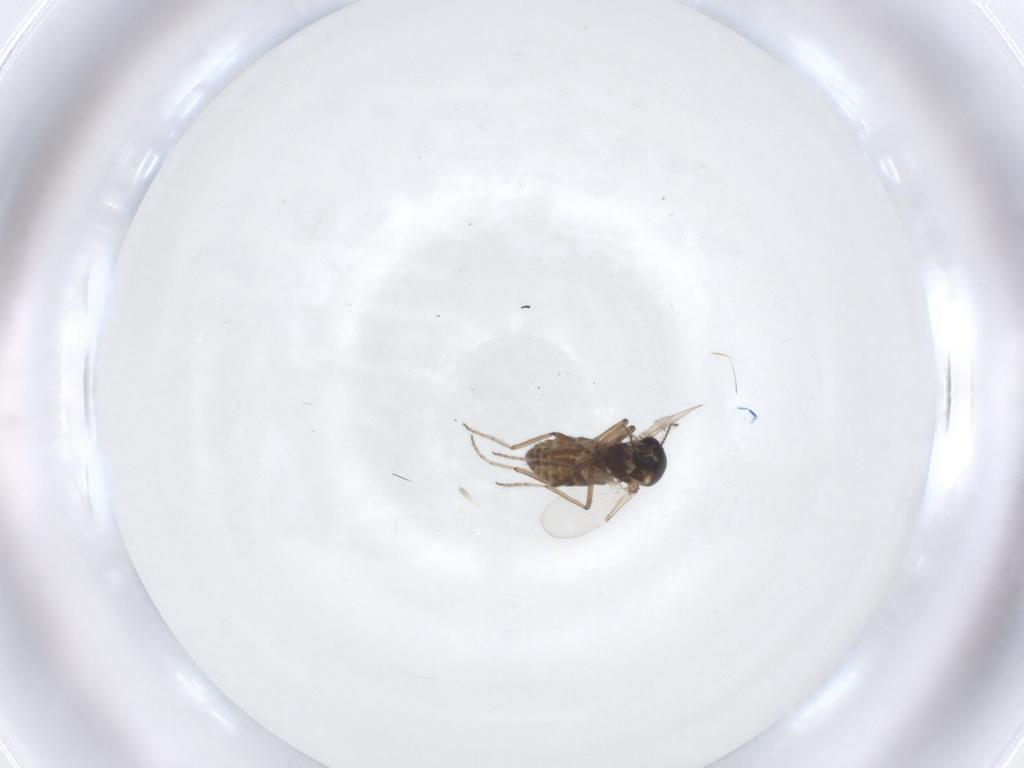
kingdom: Animalia
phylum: Arthropoda
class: Insecta
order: Diptera
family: Ceratopogonidae
